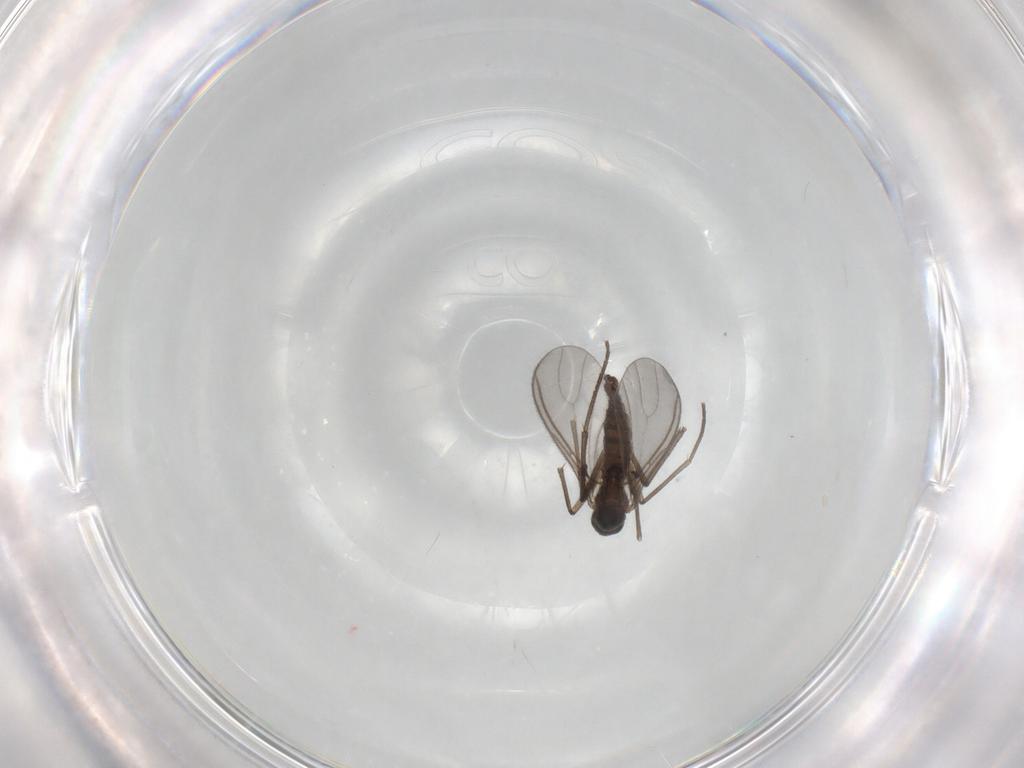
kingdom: Animalia
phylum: Arthropoda
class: Insecta
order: Diptera
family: Sciaridae
